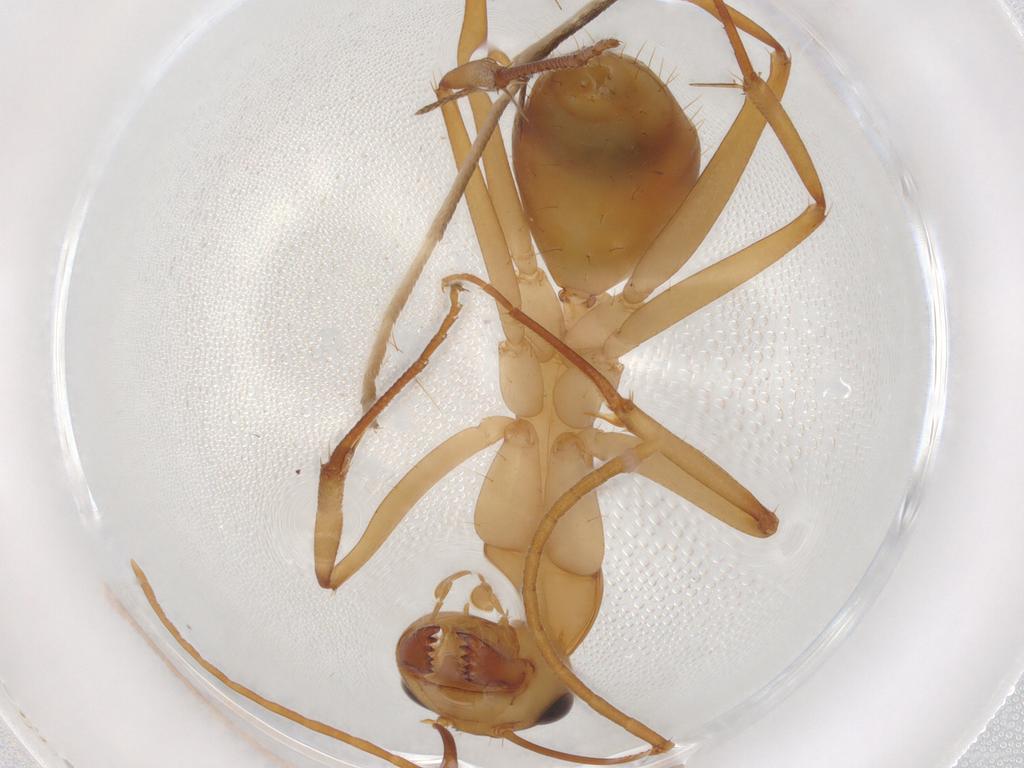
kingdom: Animalia
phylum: Arthropoda
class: Insecta
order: Hymenoptera
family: Formicidae
